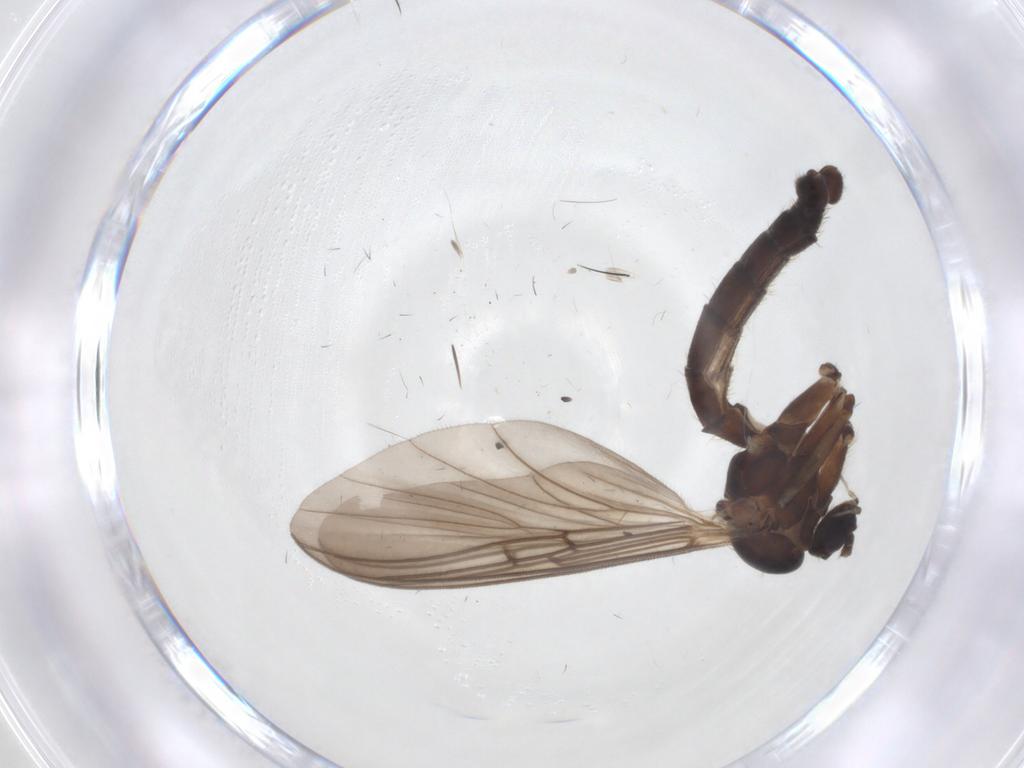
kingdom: Animalia
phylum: Arthropoda
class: Insecta
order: Diptera
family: Mycetophilidae
